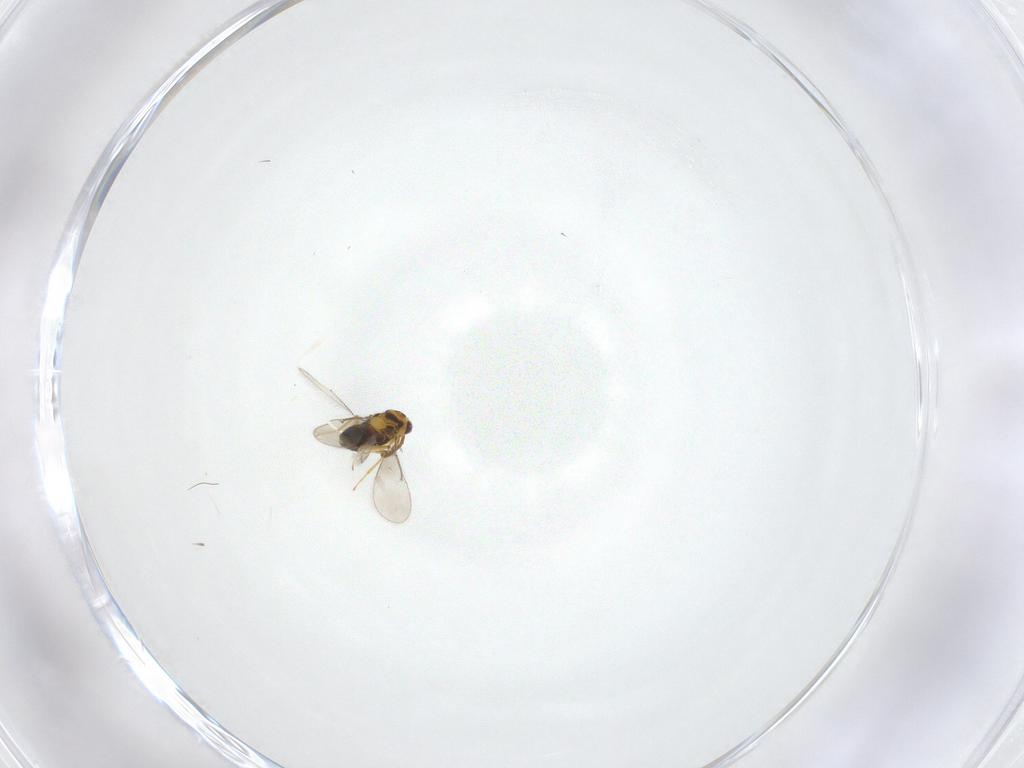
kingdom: Animalia
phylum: Arthropoda
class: Insecta
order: Hymenoptera
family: Aphelinidae
